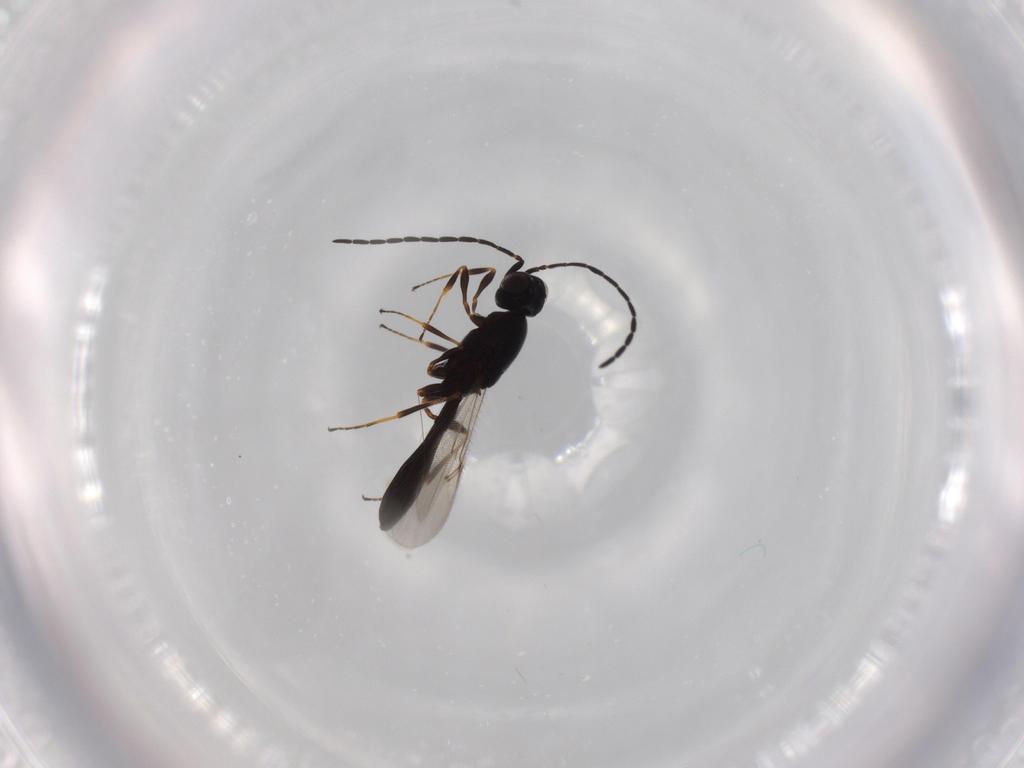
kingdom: Animalia
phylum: Arthropoda
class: Insecta
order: Hymenoptera
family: Scelionidae
